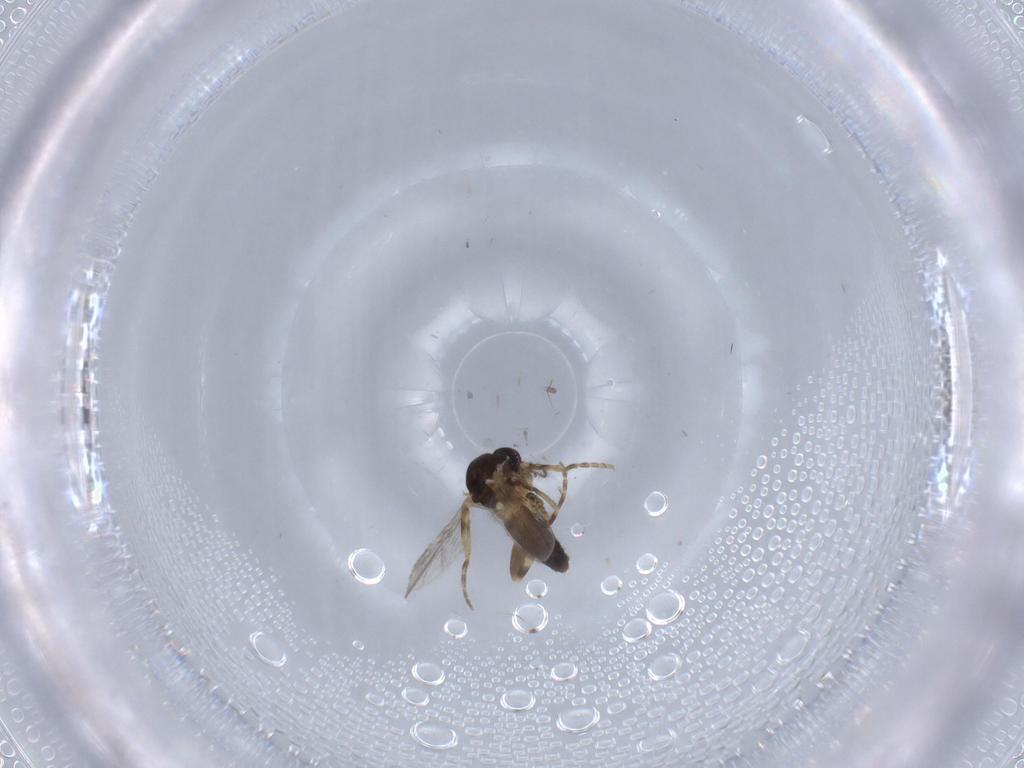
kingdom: Animalia
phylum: Arthropoda
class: Insecta
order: Diptera
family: Ceratopogonidae
